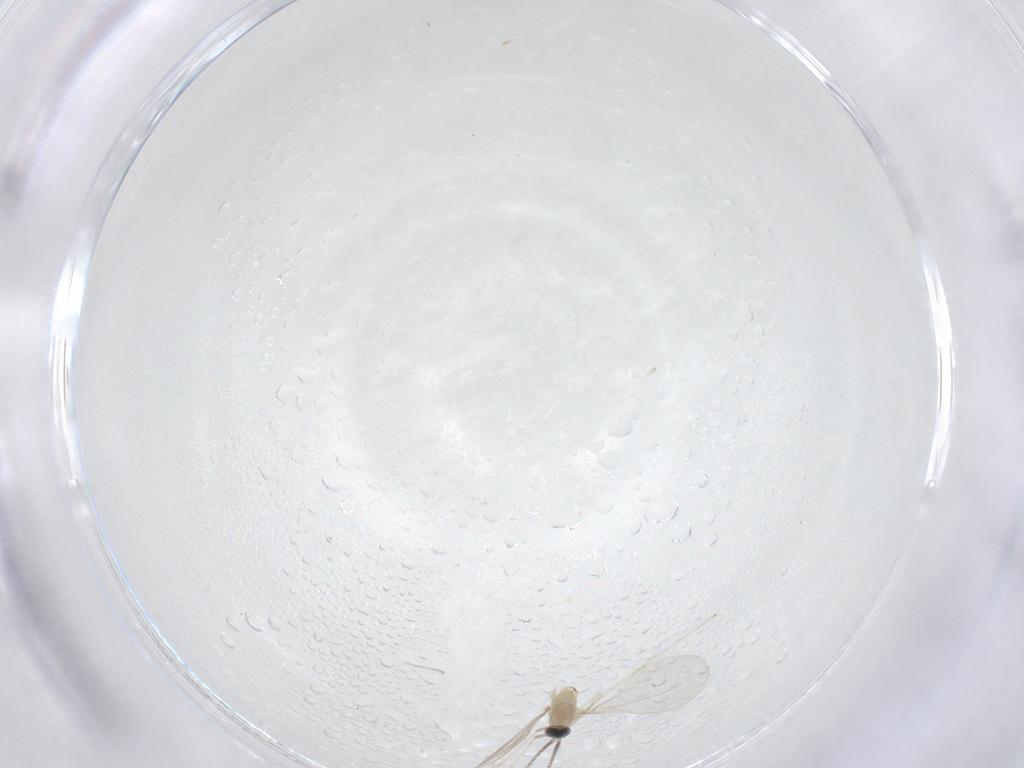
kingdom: Animalia
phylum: Arthropoda
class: Insecta
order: Diptera
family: Cecidomyiidae
